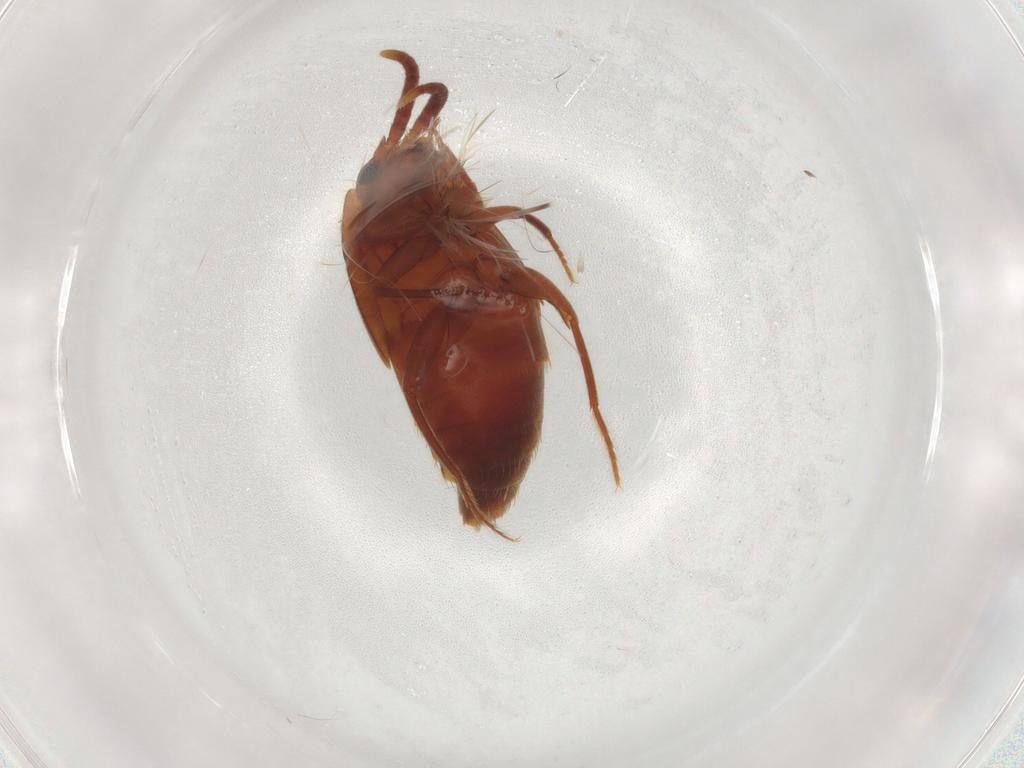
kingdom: Animalia
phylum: Arthropoda
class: Insecta
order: Coleoptera
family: Staphylinidae
